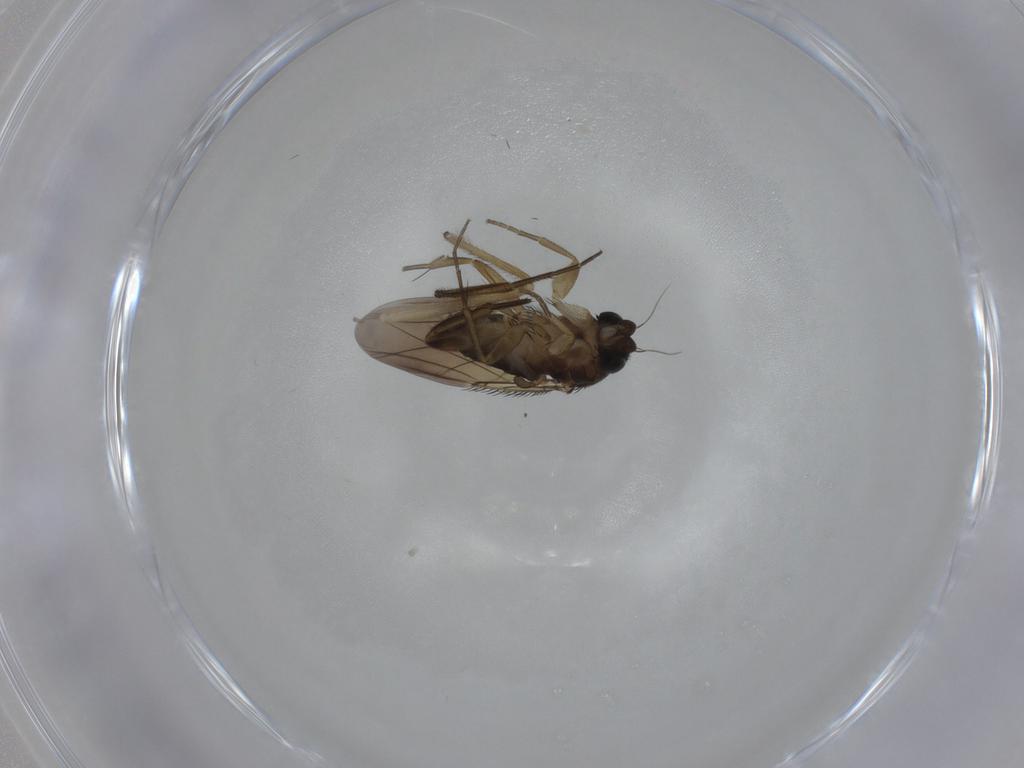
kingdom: Animalia
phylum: Arthropoda
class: Insecta
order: Diptera
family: Phoridae
